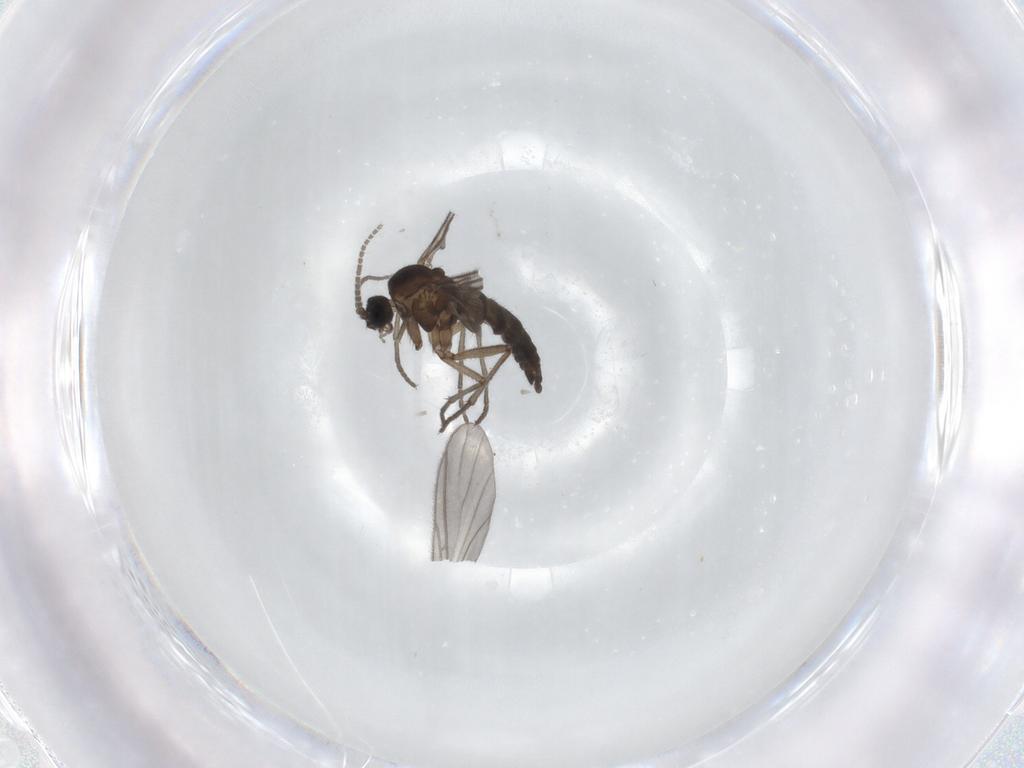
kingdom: Animalia
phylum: Arthropoda
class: Insecta
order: Diptera
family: Sciaridae
